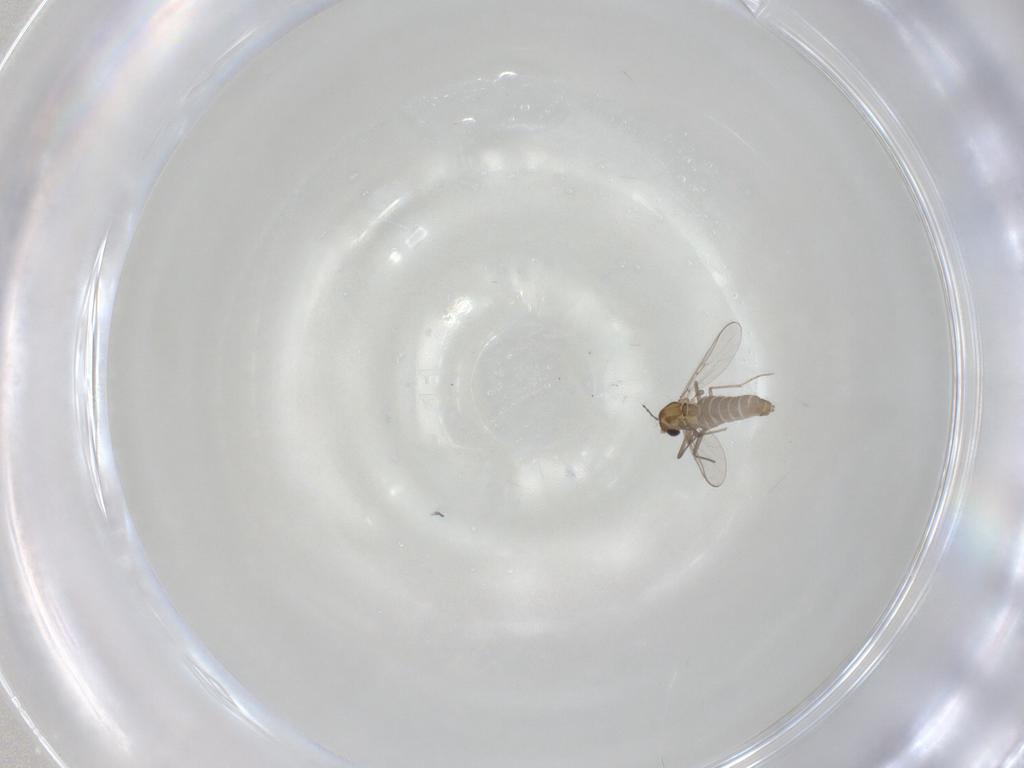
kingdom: Animalia
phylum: Arthropoda
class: Insecta
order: Diptera
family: Chironomidae
